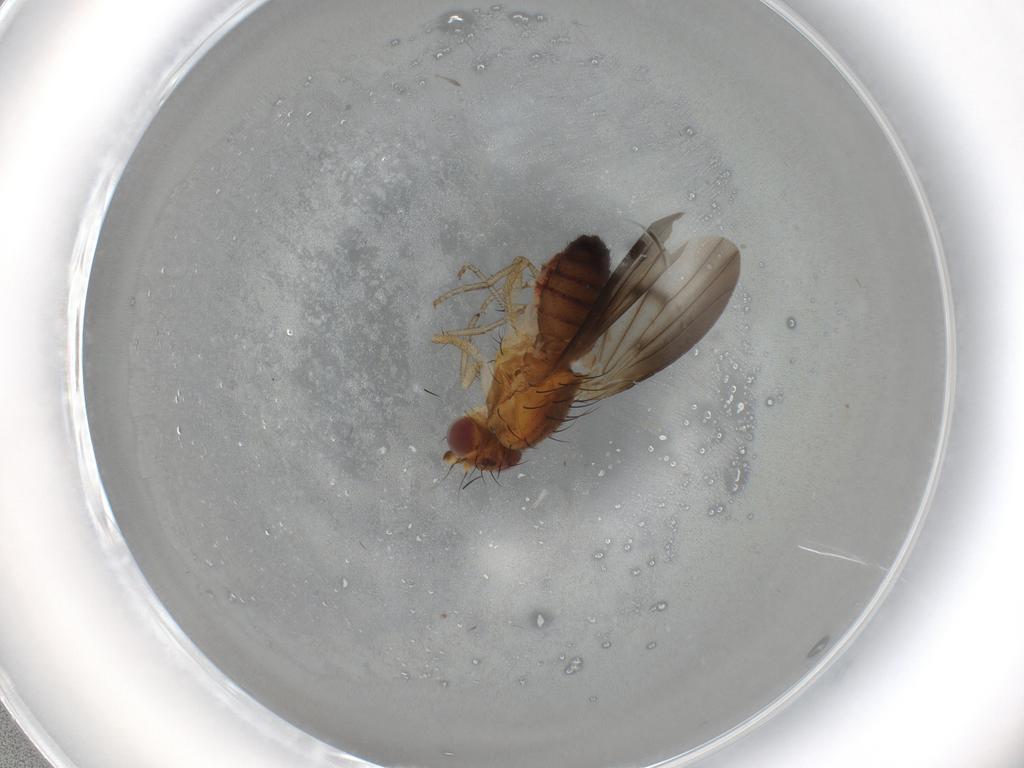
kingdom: Animalia
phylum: Arthropoda
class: Insecta
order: Diptera
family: Heleomyzidae
